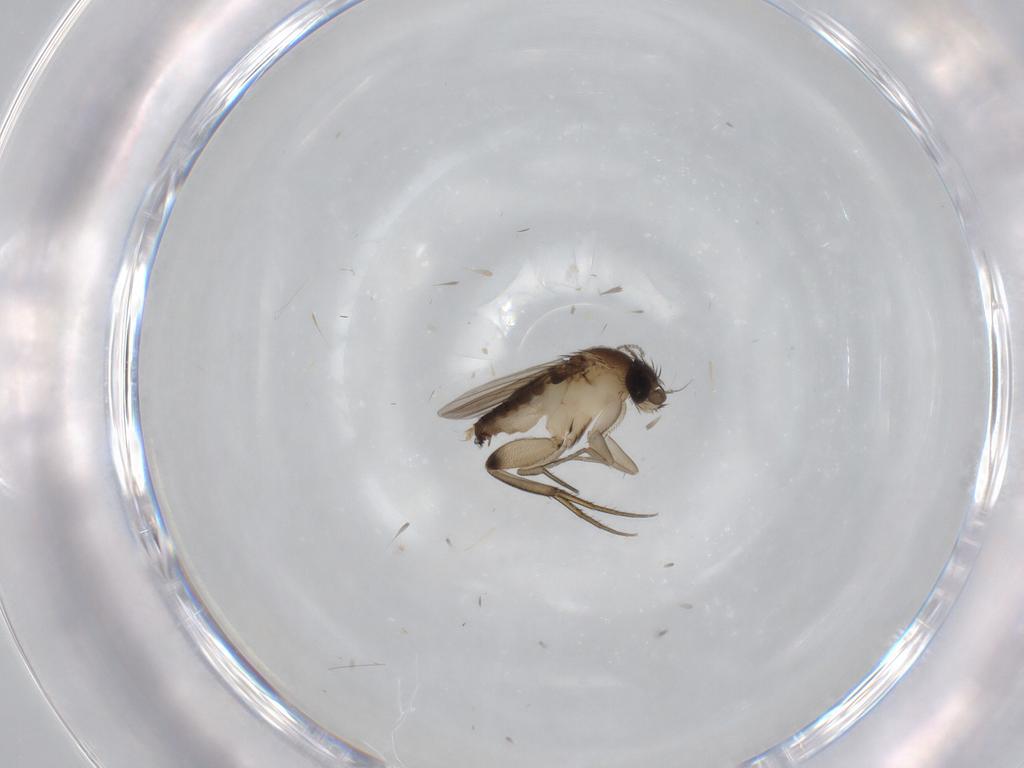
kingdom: Animalia
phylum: Arthropoda
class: Insecta
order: Diptera
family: Phoridae
